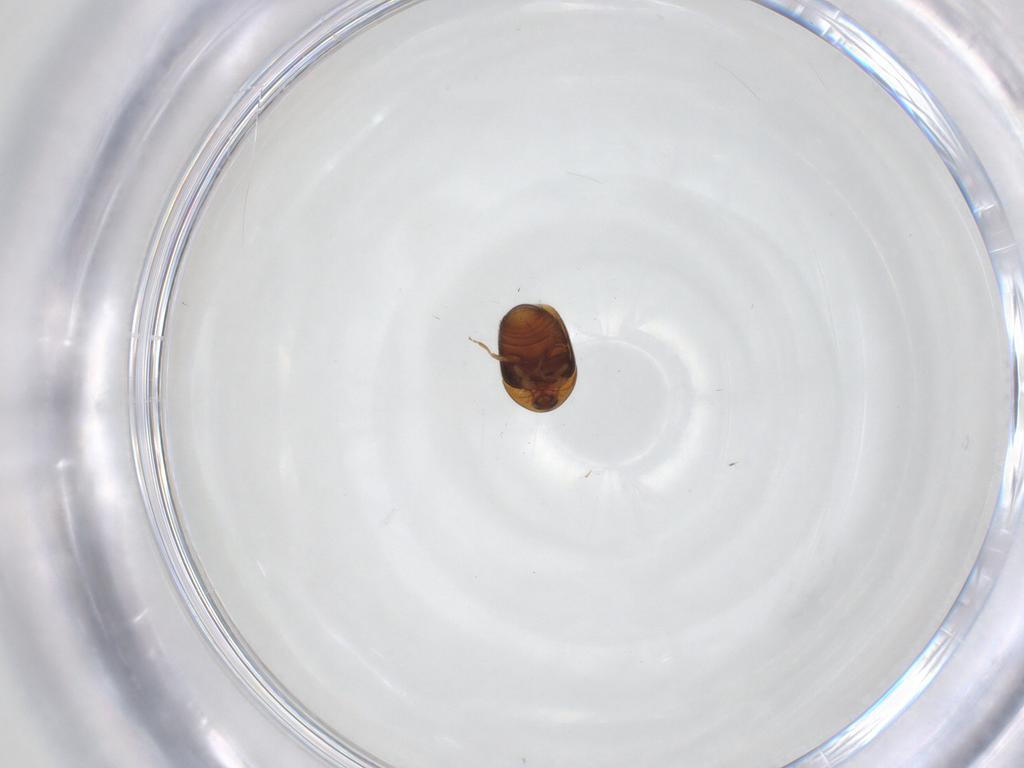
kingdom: Animalia
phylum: Arthropoda
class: Insecta
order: Coleoptera
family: Corylophidae
